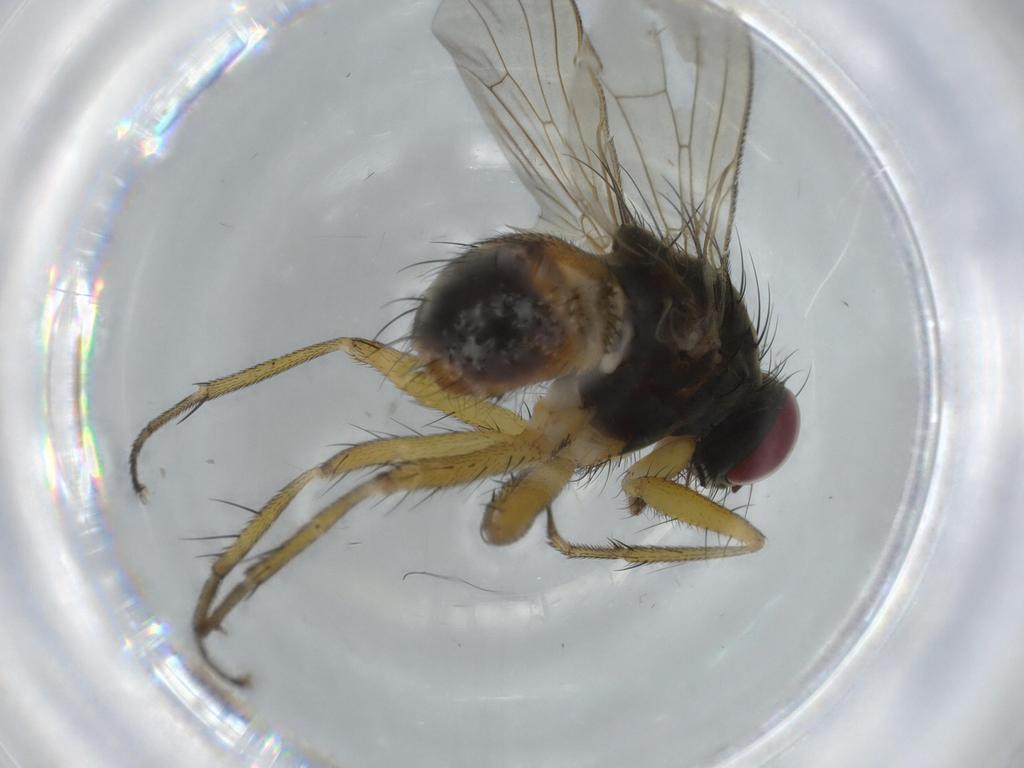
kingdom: Animalia
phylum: Arthropoda
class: Insecta
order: Diptera
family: Muscidae
